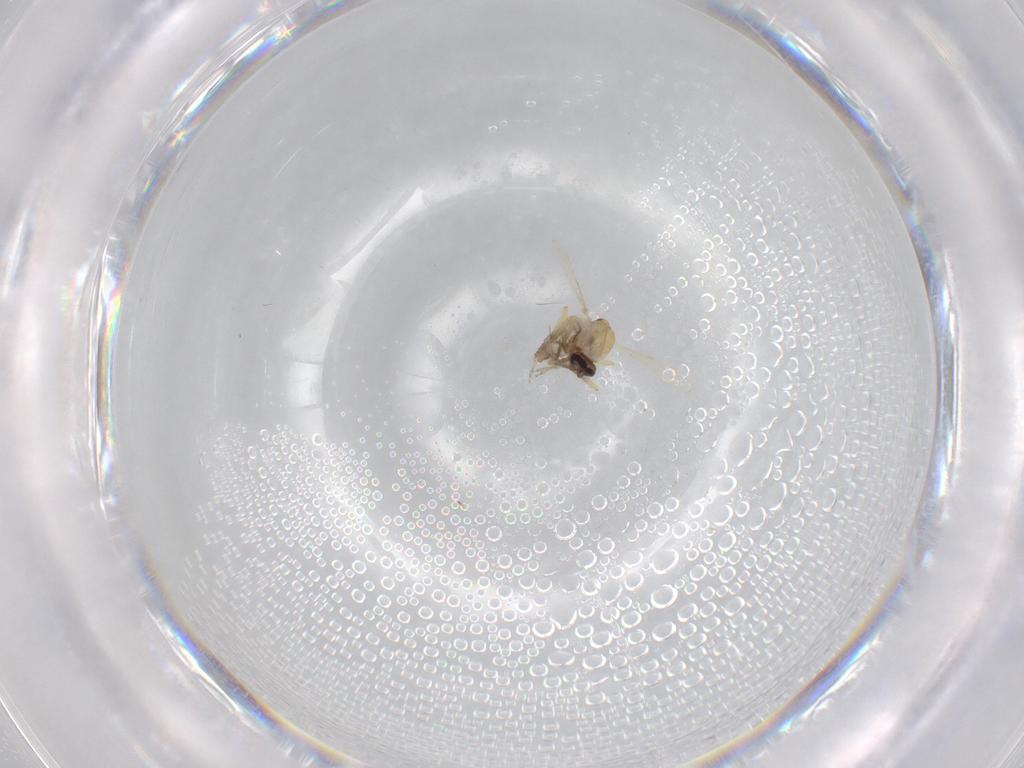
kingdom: Animalia
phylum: Arthropoda
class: Insecta
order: Diptera
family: Ceratopogonidae
